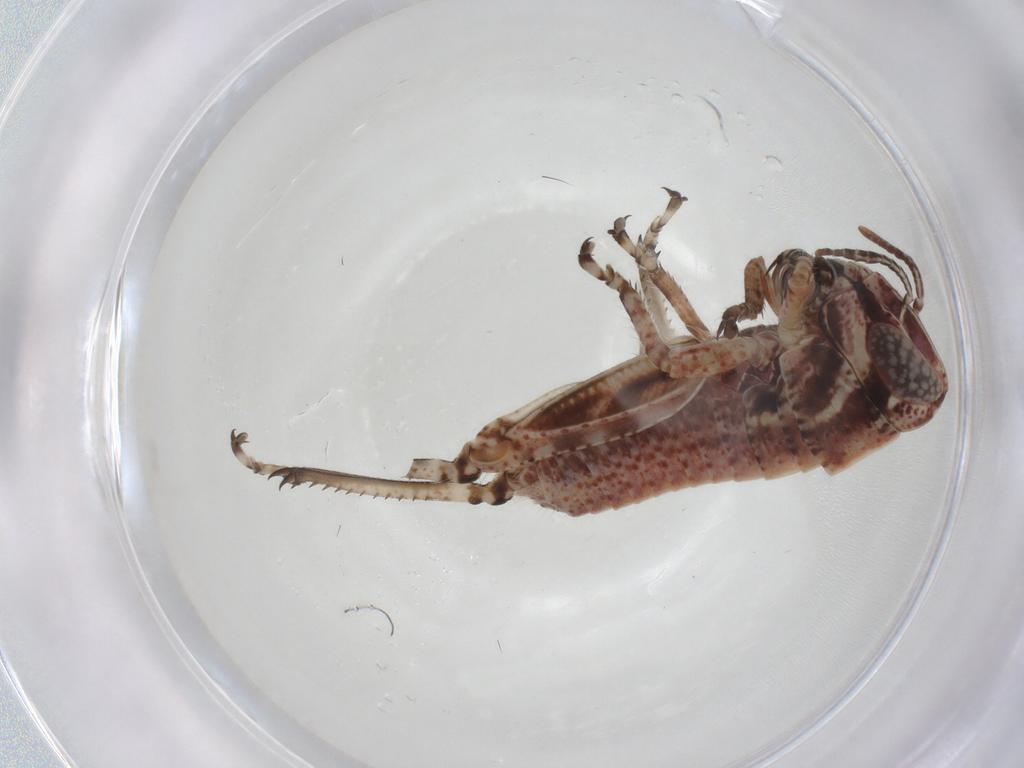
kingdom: Animalia
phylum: Arthropoda
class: Insecta
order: Orthoptera
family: Acrididae
